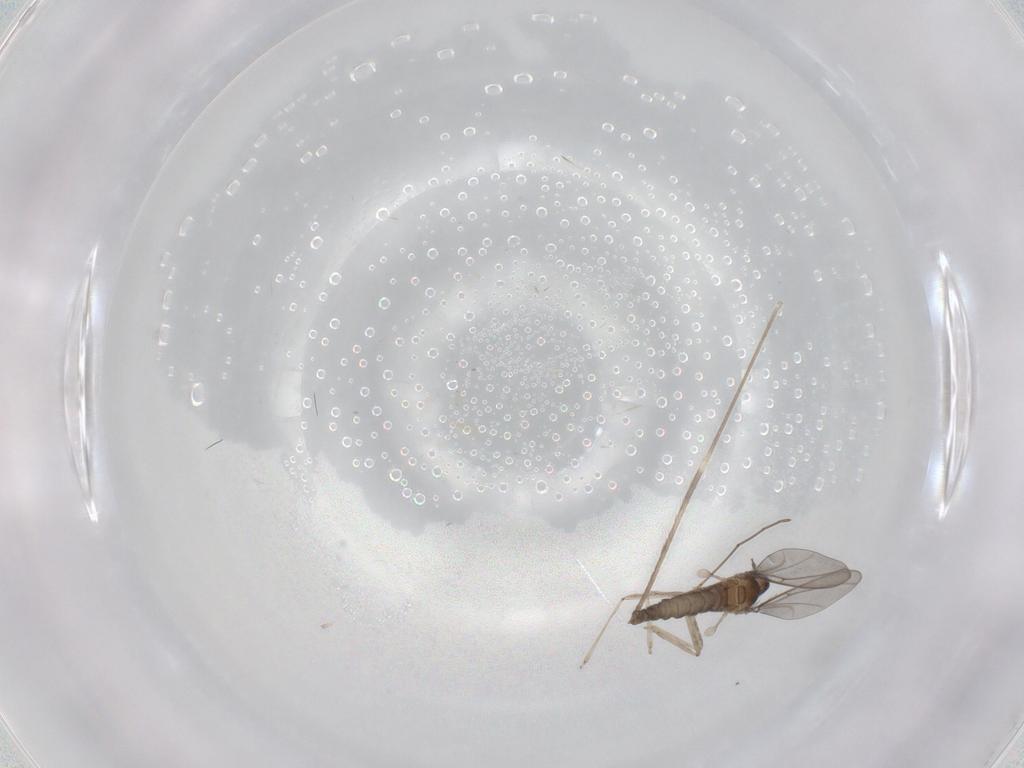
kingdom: Animalia
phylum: Arthropoda
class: Insecta
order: Diptera
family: Cecidomyiidae
